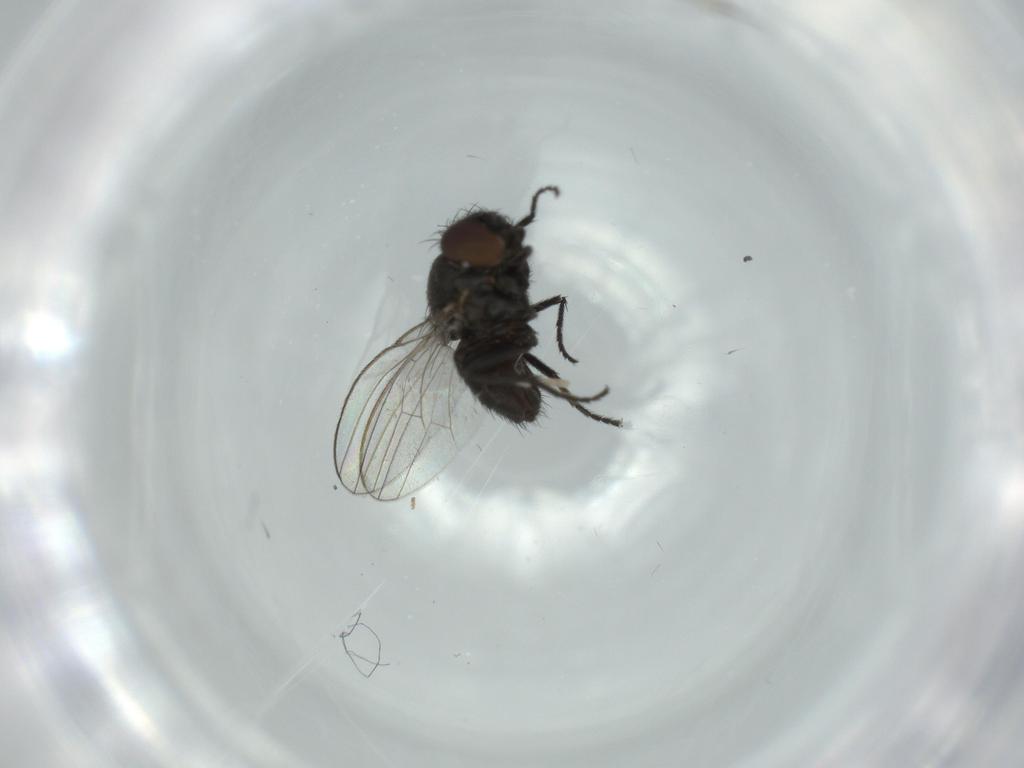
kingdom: Animalia
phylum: Arthropoda
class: Insecta
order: Diptera
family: Milichiidae
